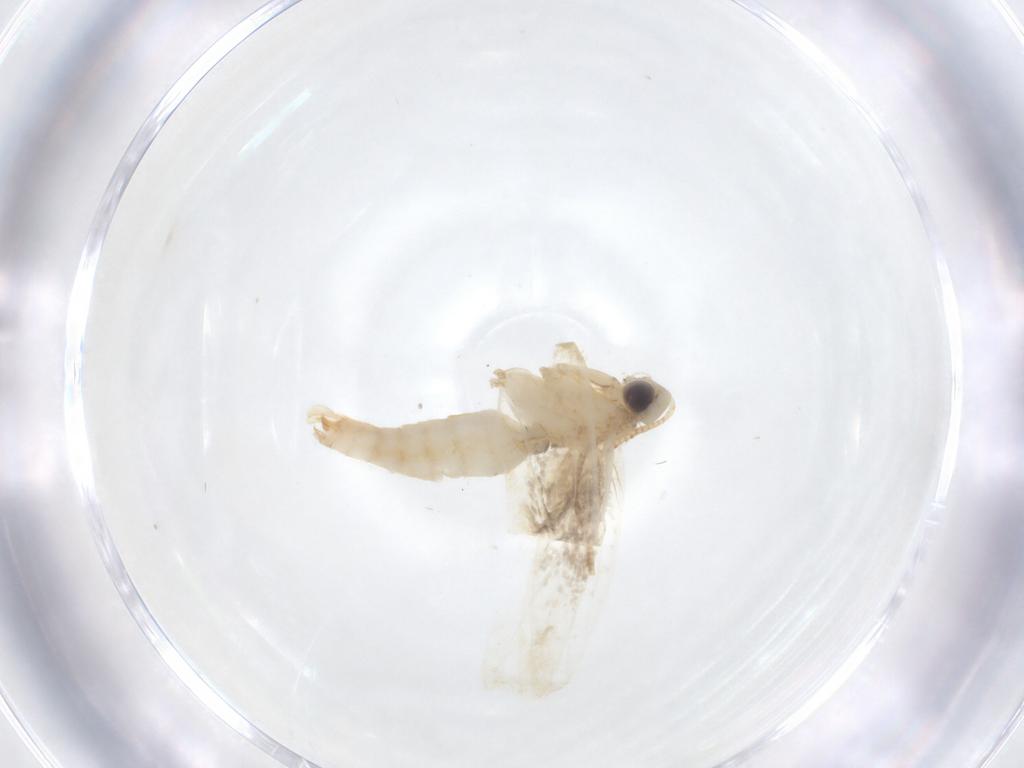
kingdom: Animalia
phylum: Arthropoda
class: Insecta
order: Lepidoptera
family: Tineidae
